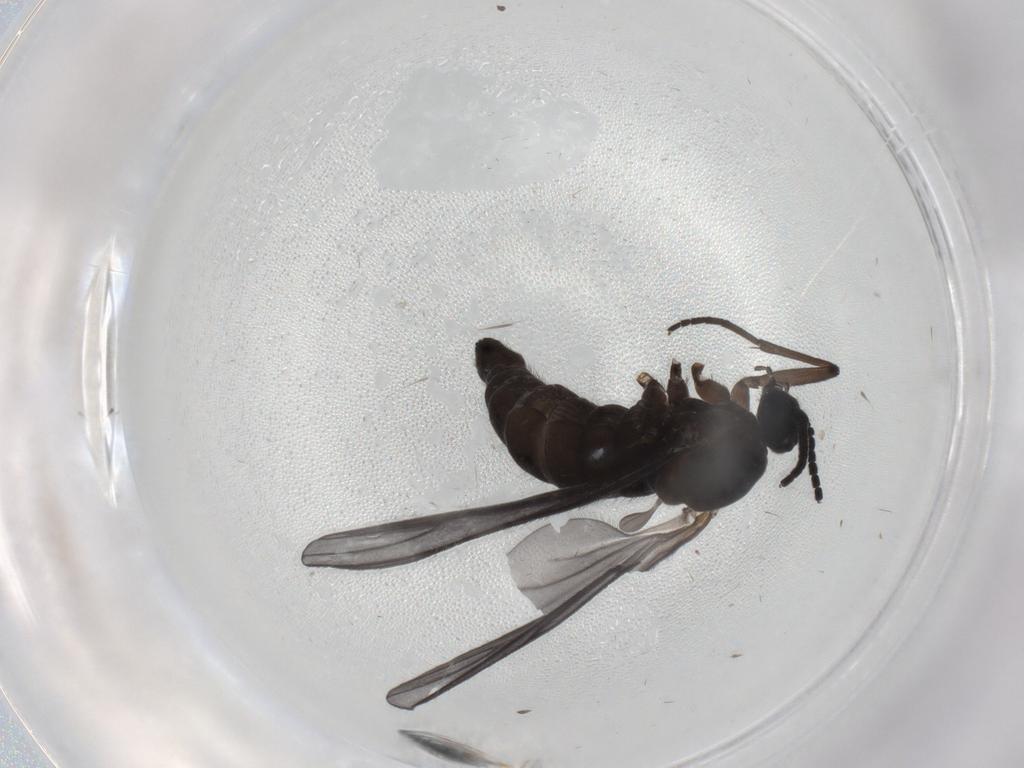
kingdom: Animalia
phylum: Arthropoda
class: Insecta
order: Diptera
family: Sciaridae
